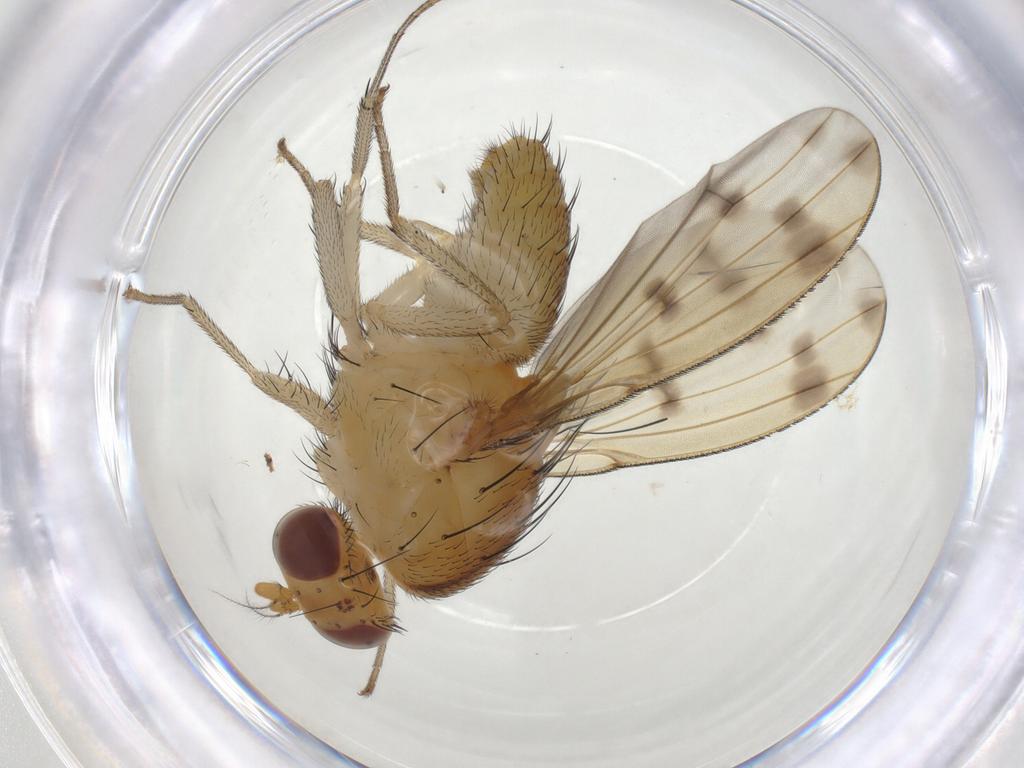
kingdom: Animalia
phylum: Arthropoda
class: Insecta
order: Diptera
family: Lauxaniidae
